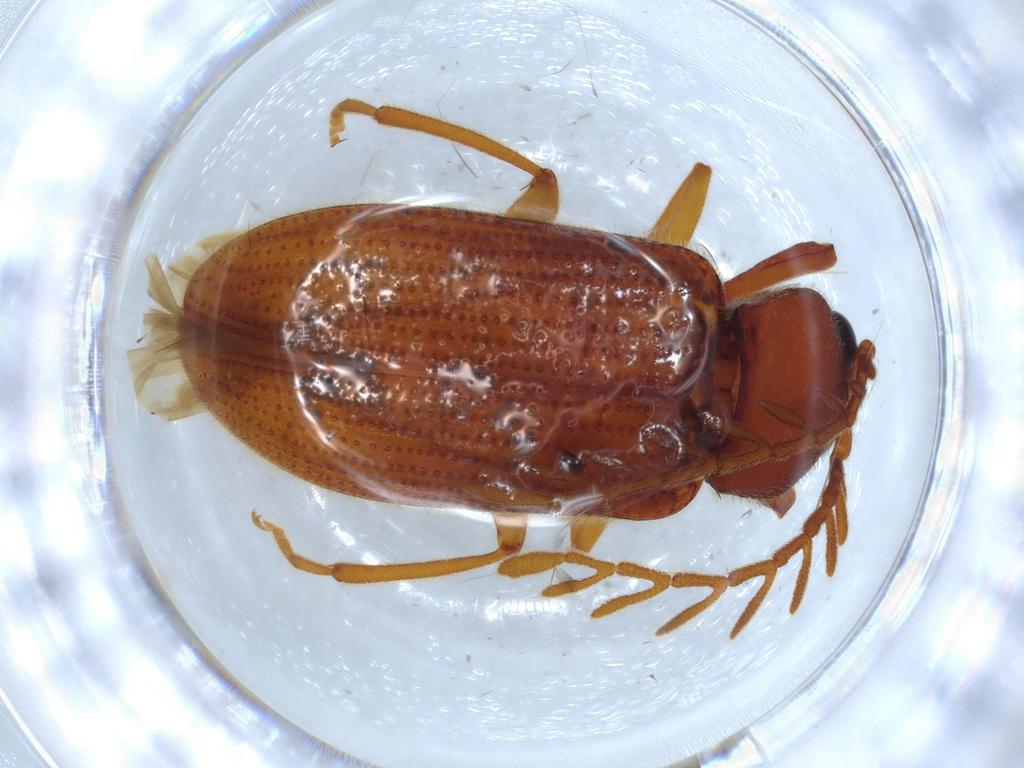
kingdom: Animalia
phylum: Arthropoda
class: Insecta
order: Coleoptera
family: Cerophytidae
